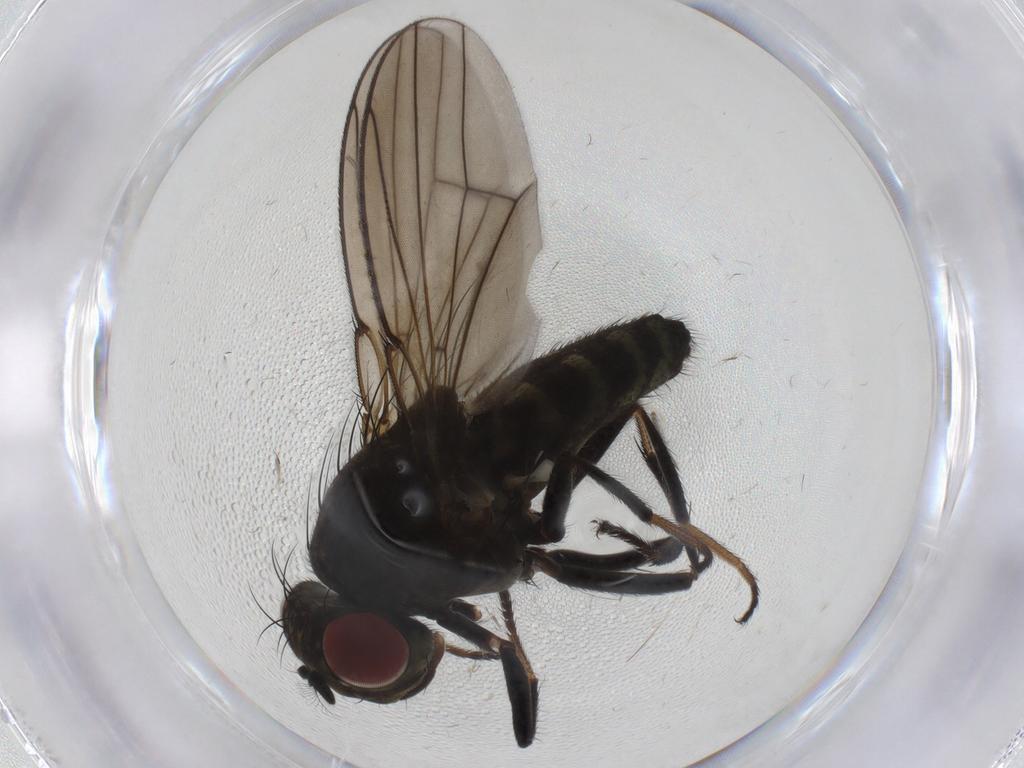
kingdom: Animalia
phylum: Arthropoda
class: Insecta
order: Diptera
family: Ephydridae
